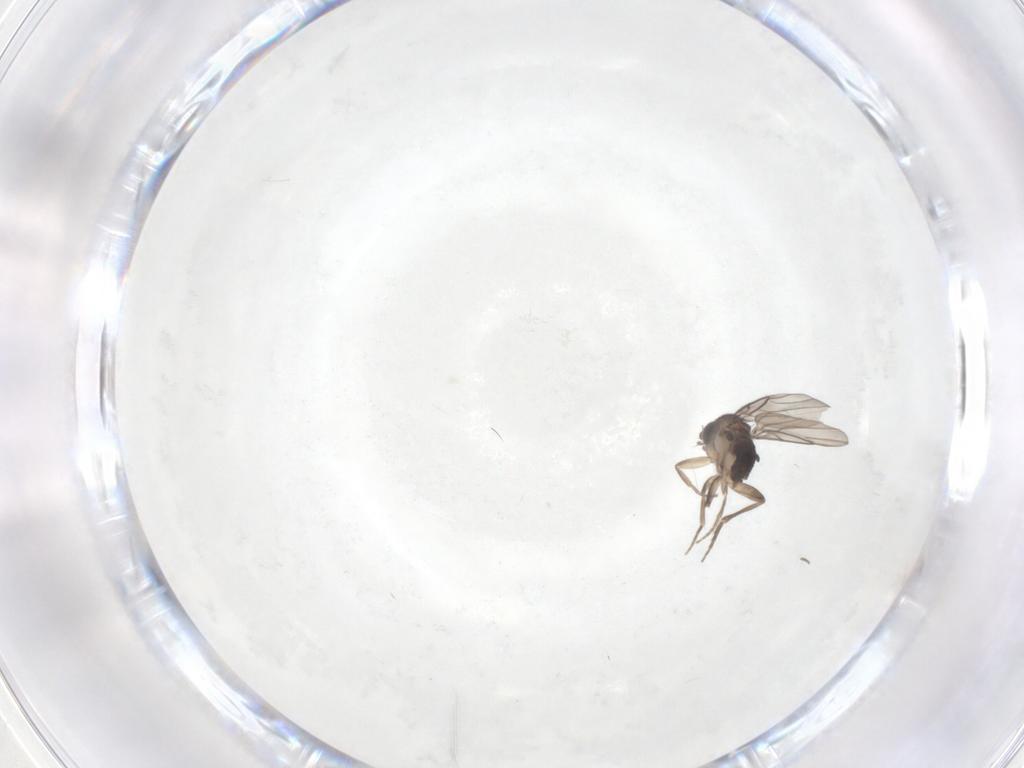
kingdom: Animalia
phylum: Arthropoda
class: Insecta
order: Diptera
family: Phoridae
